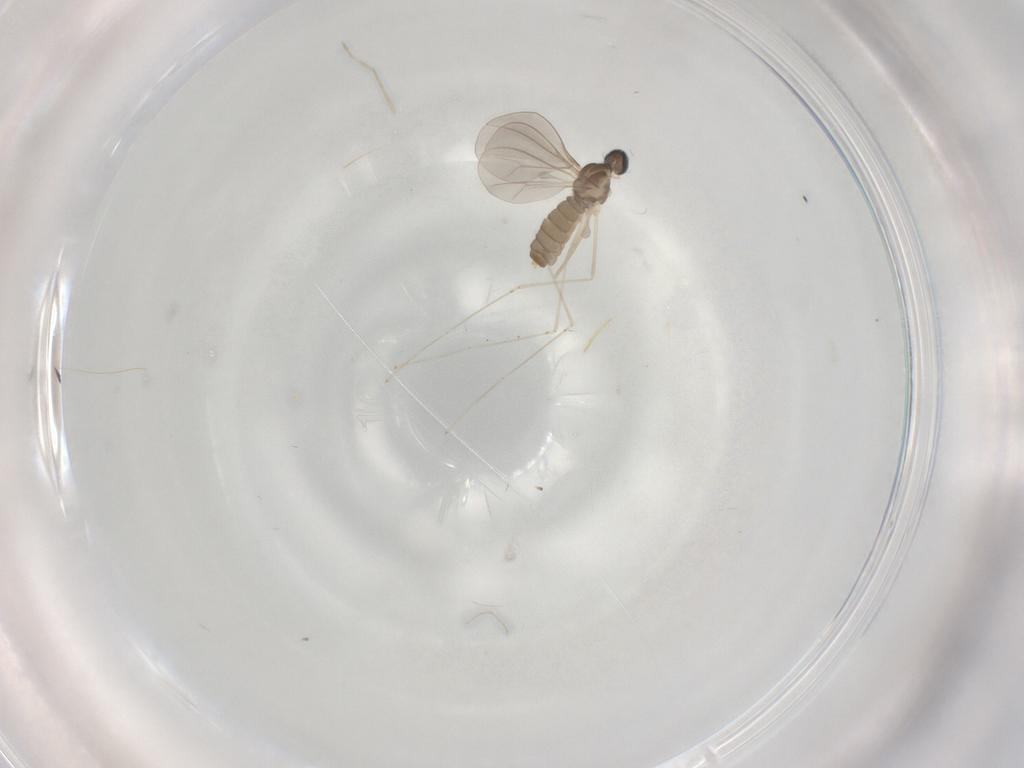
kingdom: Animalia
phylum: Arthropoda
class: Insecta
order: Diptera
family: Cecidomyiidae
